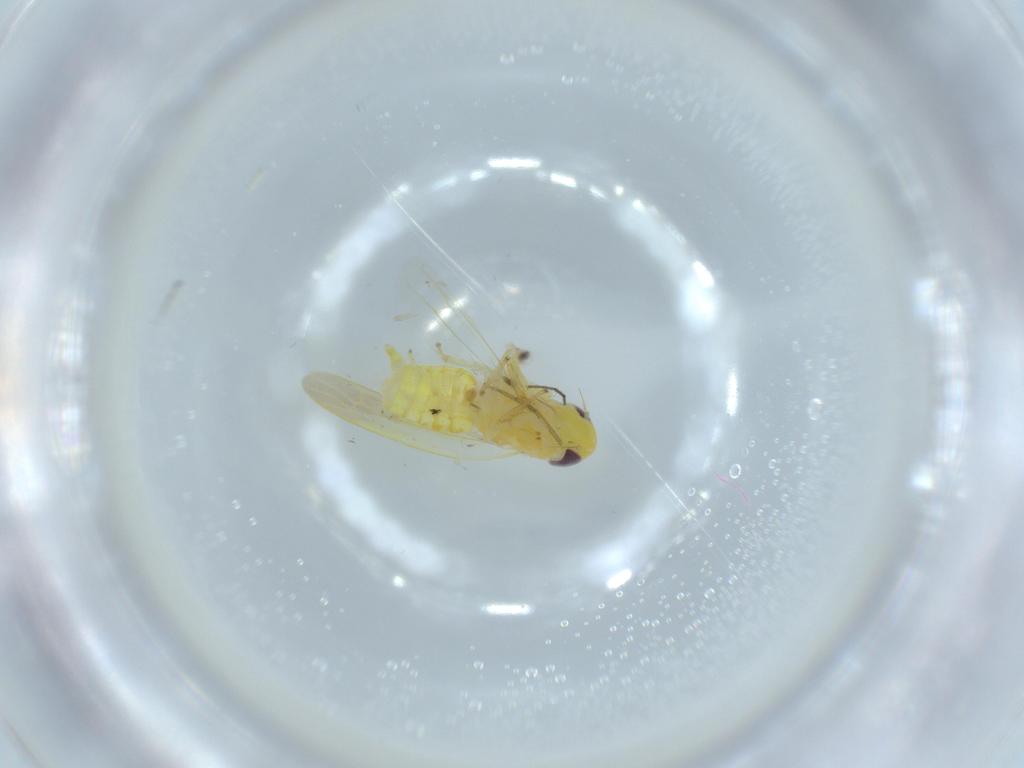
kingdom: Animalia
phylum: Arthropoda
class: Insecta
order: Hemiptera
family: Cicadellidae
